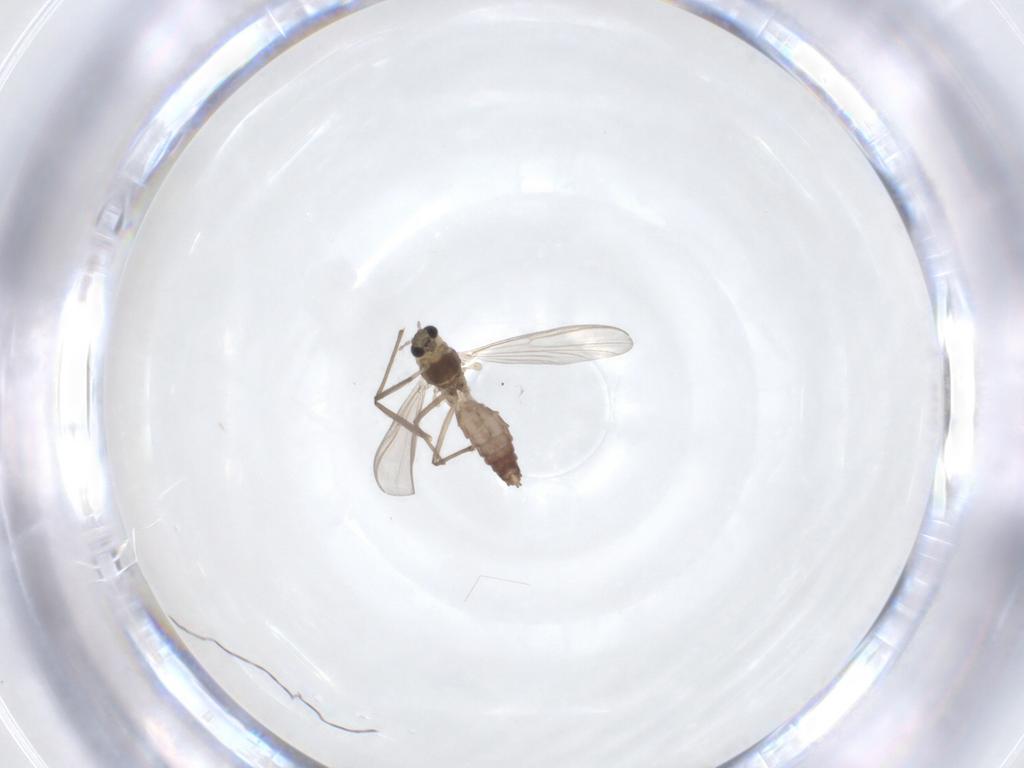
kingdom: Animalia
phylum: Arthropoda
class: Insecta
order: Diptera
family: Chironomidae
